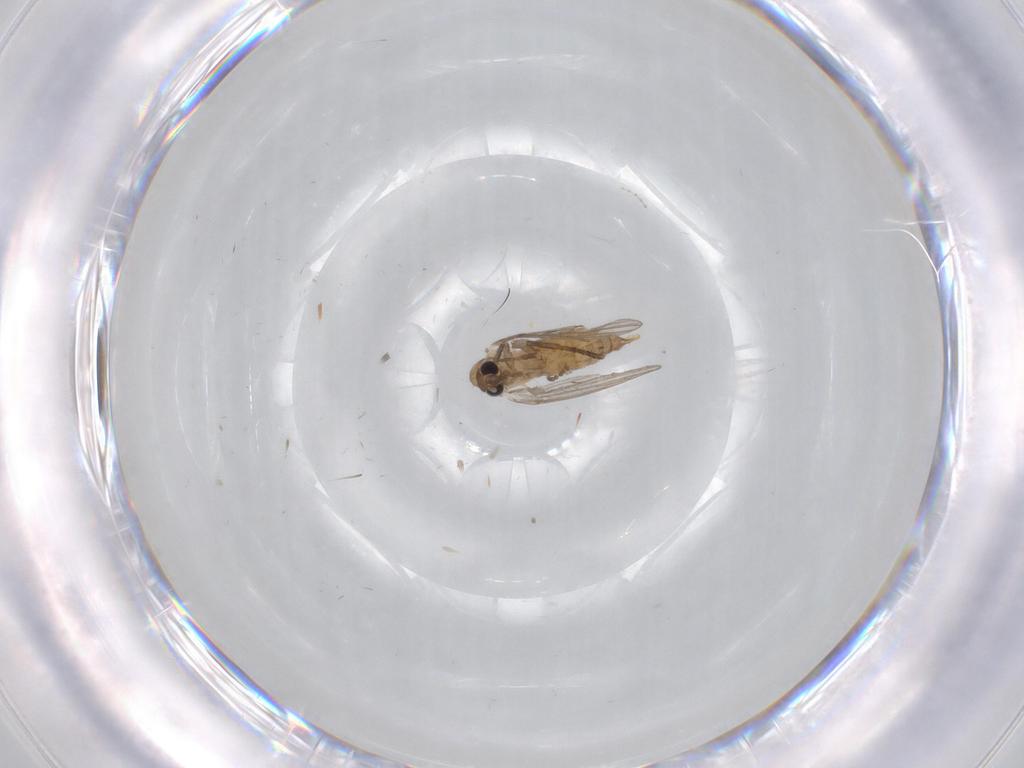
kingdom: Animalia
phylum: Arthropoda
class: Insecta
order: Diptera
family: Psychodidae
